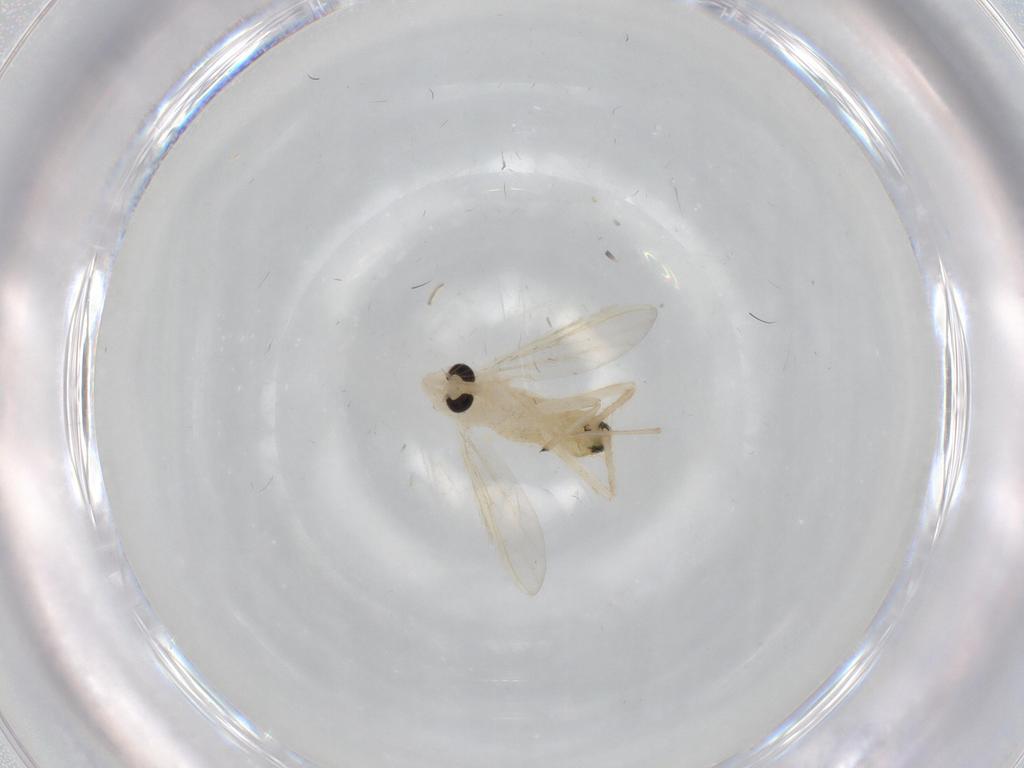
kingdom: Animalia
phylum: Arthropoda
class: Insecta
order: Diptera
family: Chironomidae
